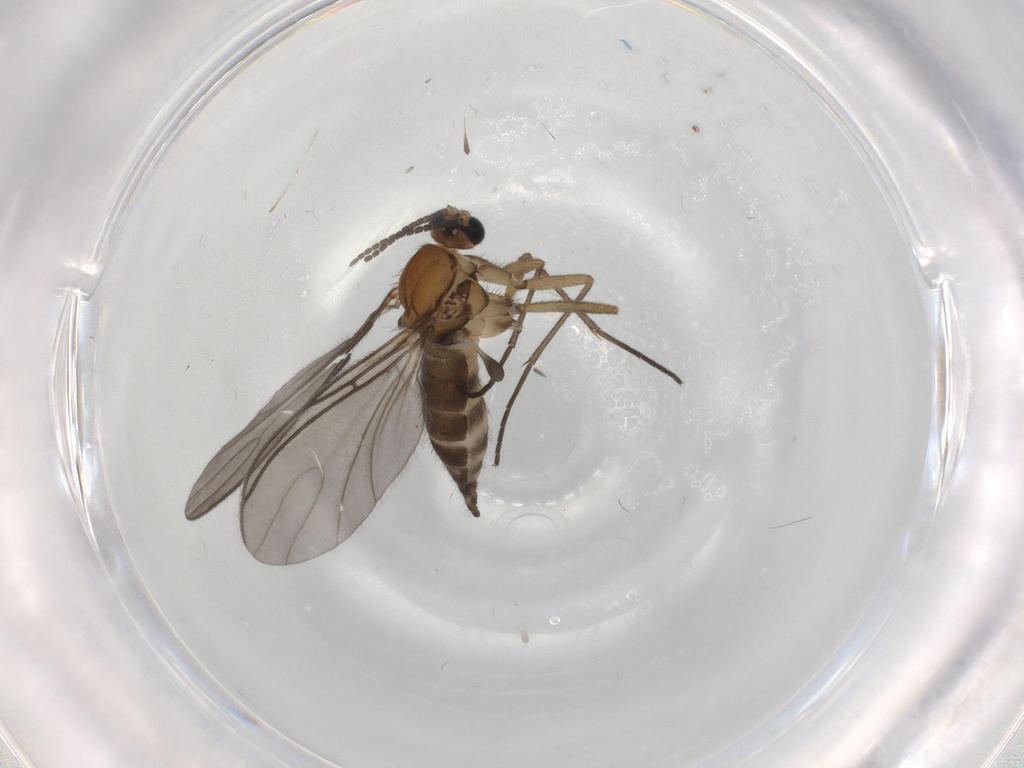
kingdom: Animalia
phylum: Arthropoda
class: Insecta
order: Diptera
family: Sciaridae
